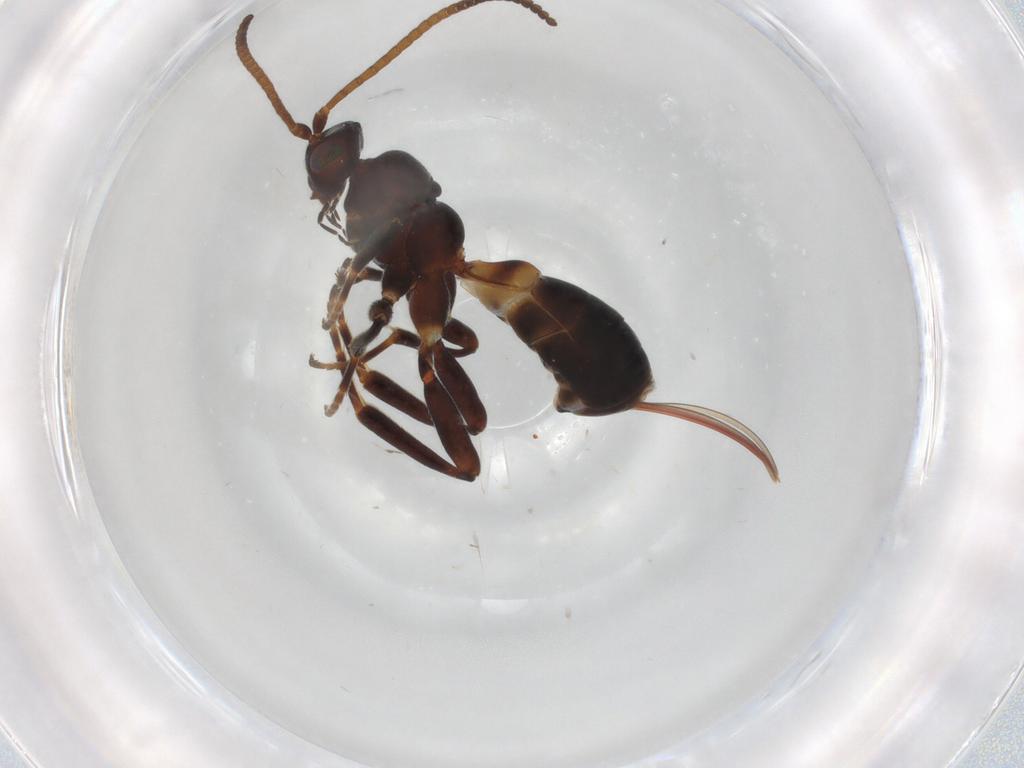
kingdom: Animalia
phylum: Arthropoda
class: Insecta
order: Hymenoptera
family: Braconidae
